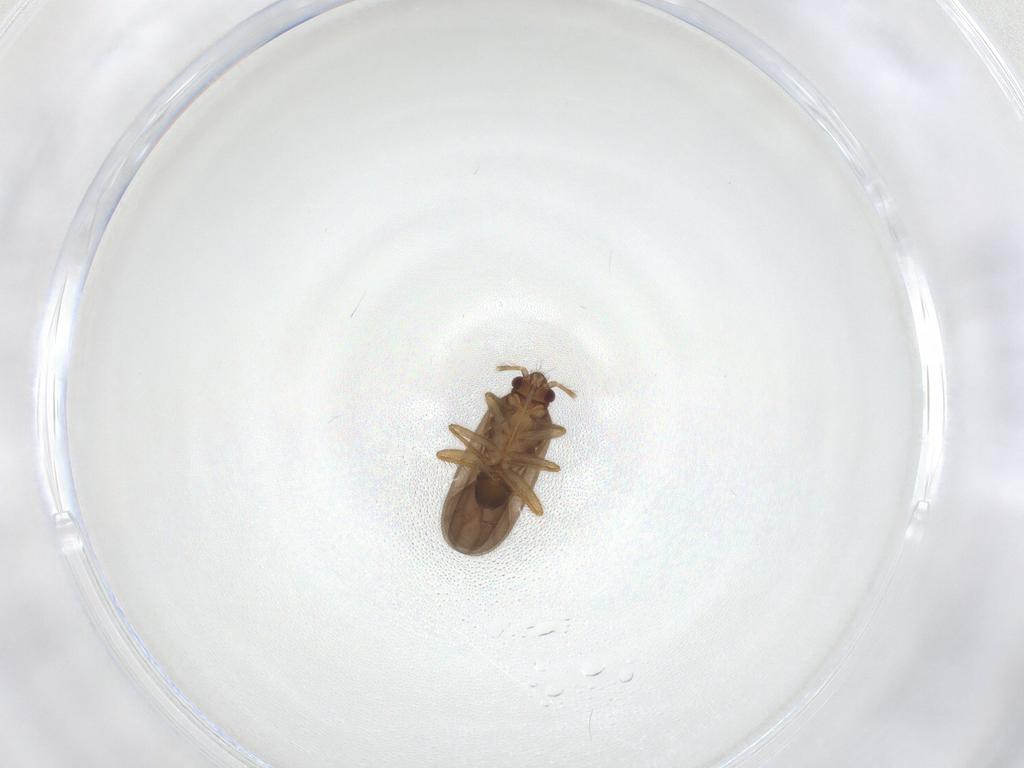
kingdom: Animalia
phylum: Arthropoda
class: Insecta
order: Hemiptera
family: Ceratocombidae
